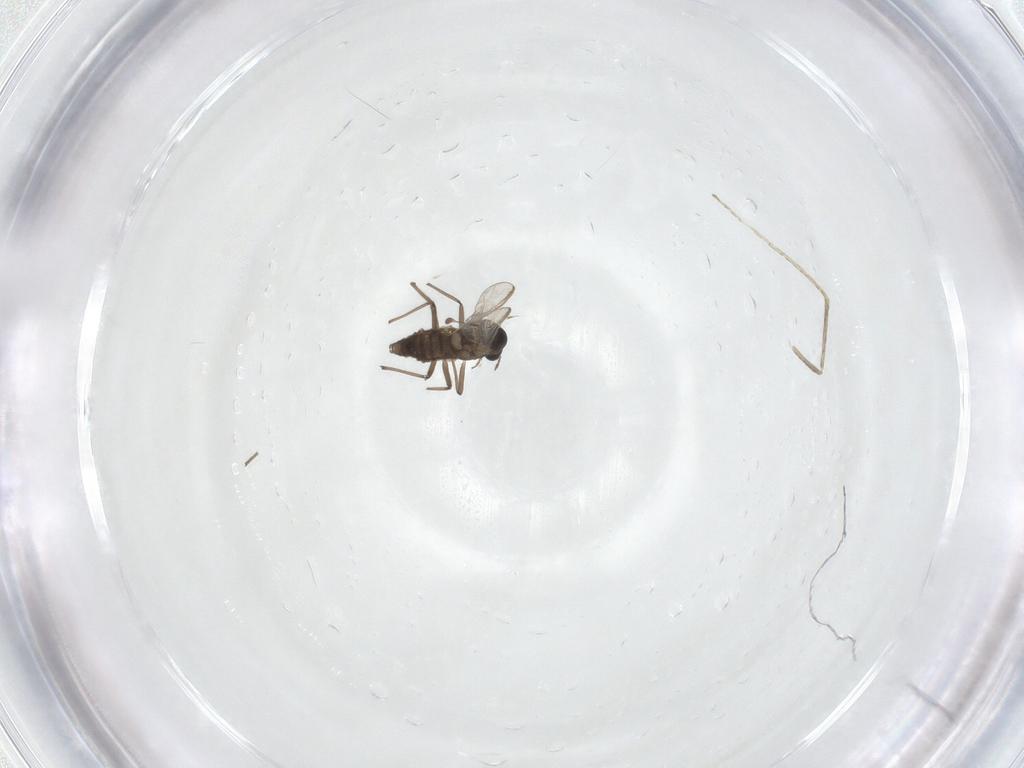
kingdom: Animalia
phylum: Arthropoda
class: Insecta
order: Diptera
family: Chironomidae
